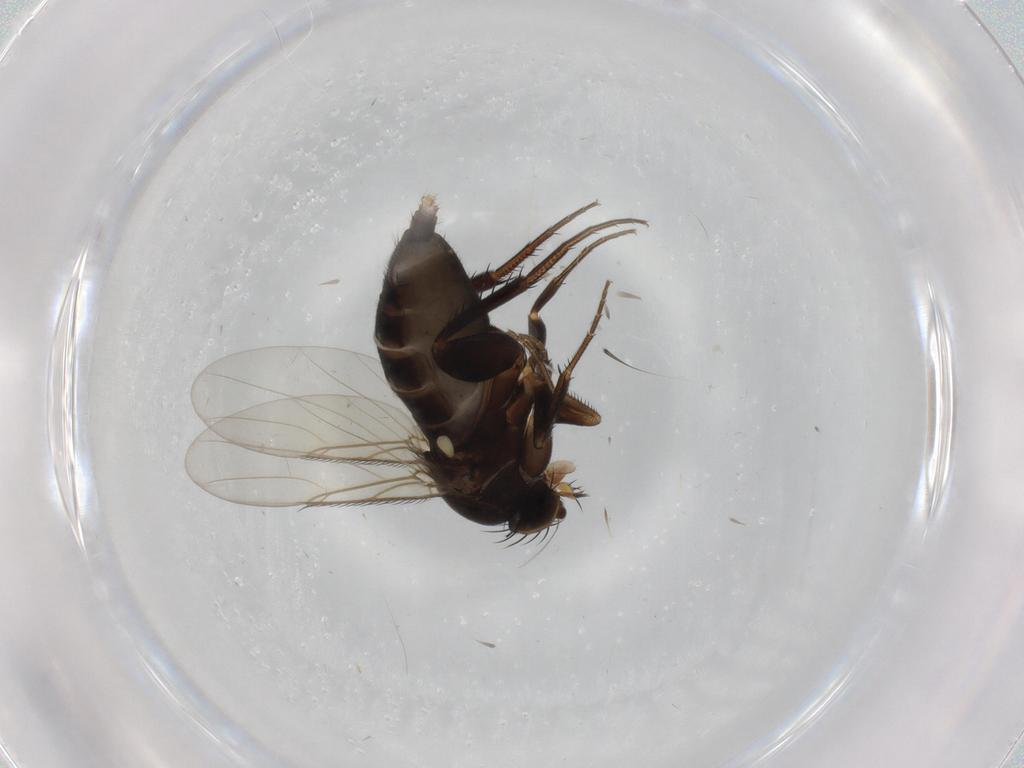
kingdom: Animalia
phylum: Arthropoda
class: Insecta
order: Diptera
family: Phoridae
